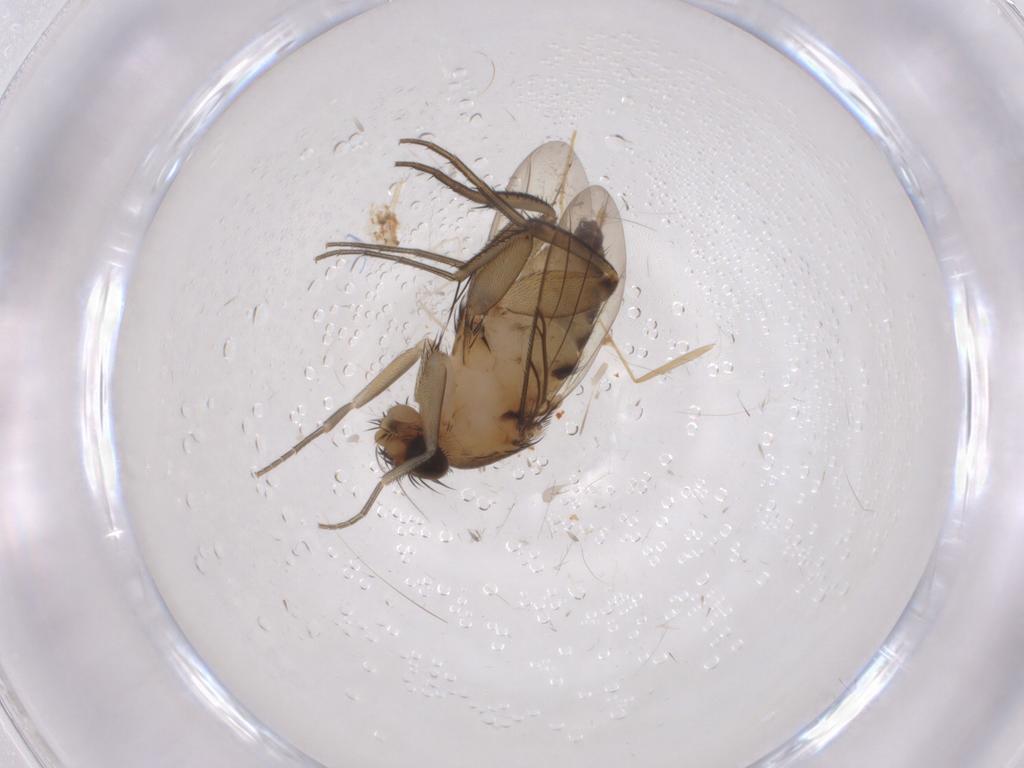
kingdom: Animalia
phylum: Arthropoda
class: Insecta
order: Diptera
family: Phoridae
